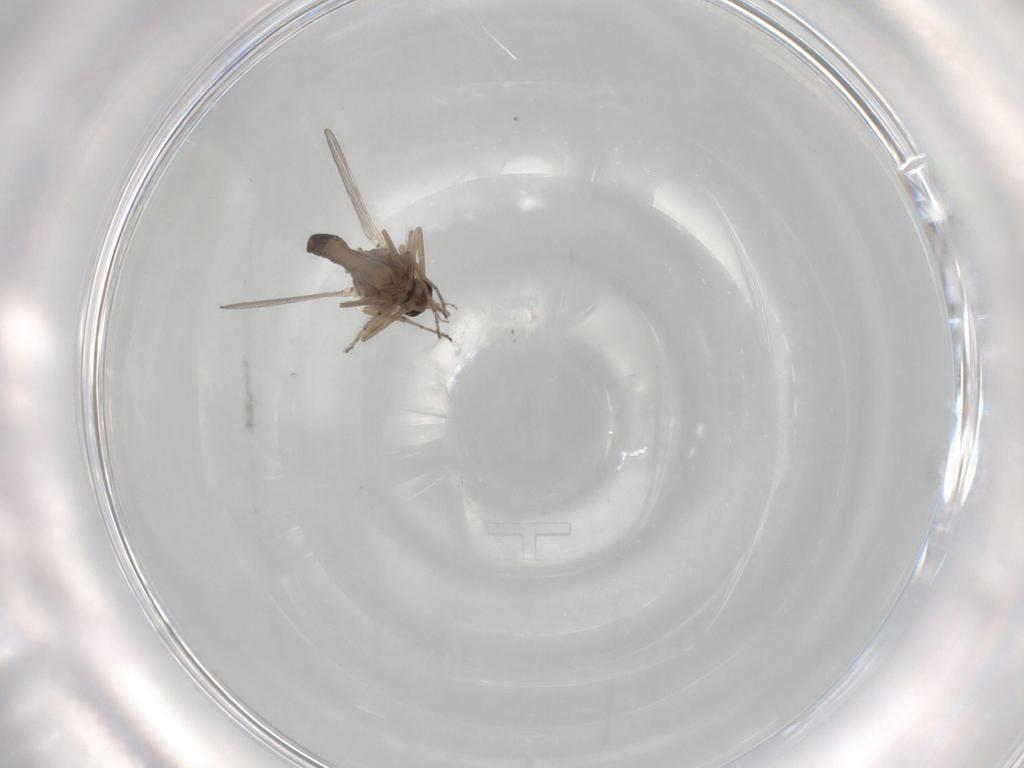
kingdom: Animalia
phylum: Arthropoda
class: Insecta
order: Diptera
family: Ceratopogonidae
